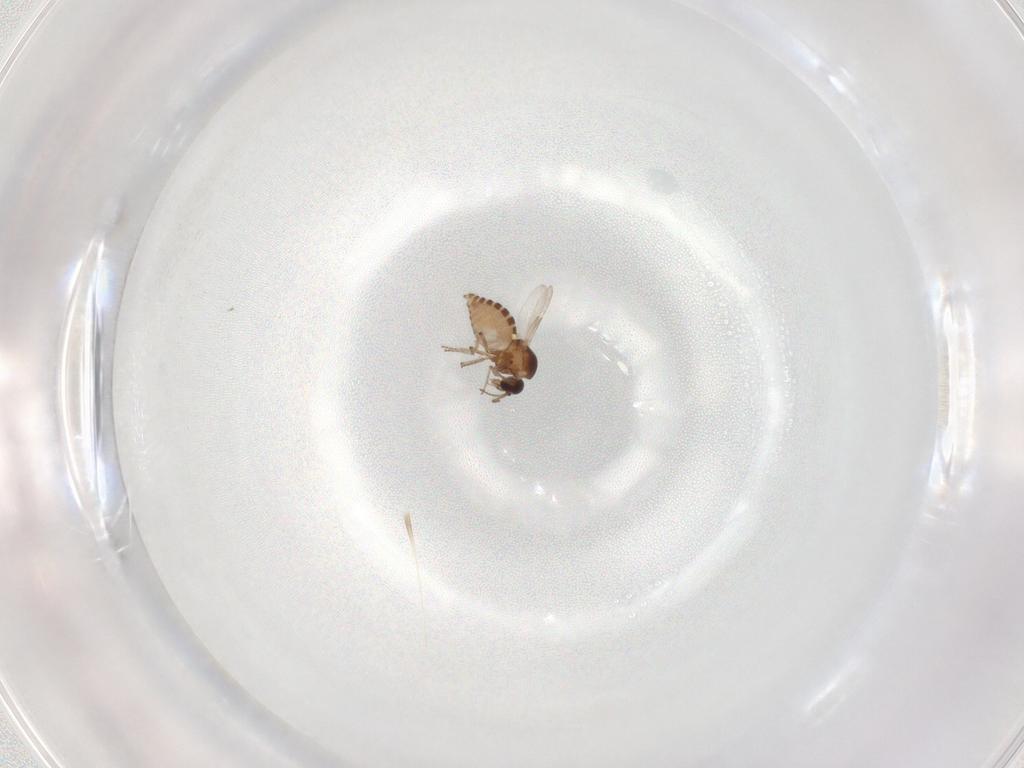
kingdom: Animalia
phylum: Arthropoda
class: Insecta
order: Diptera
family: Ceratopogonidae
